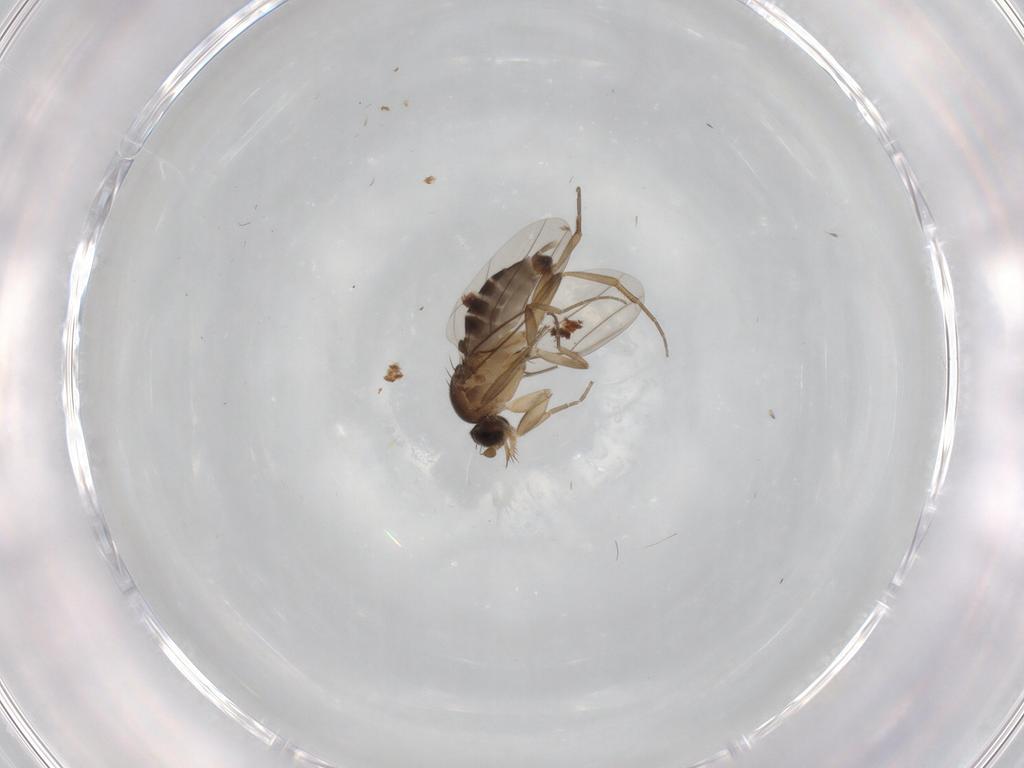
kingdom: Animalia
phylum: Arthropoda
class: Insecta
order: Diptera
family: Phoridae
